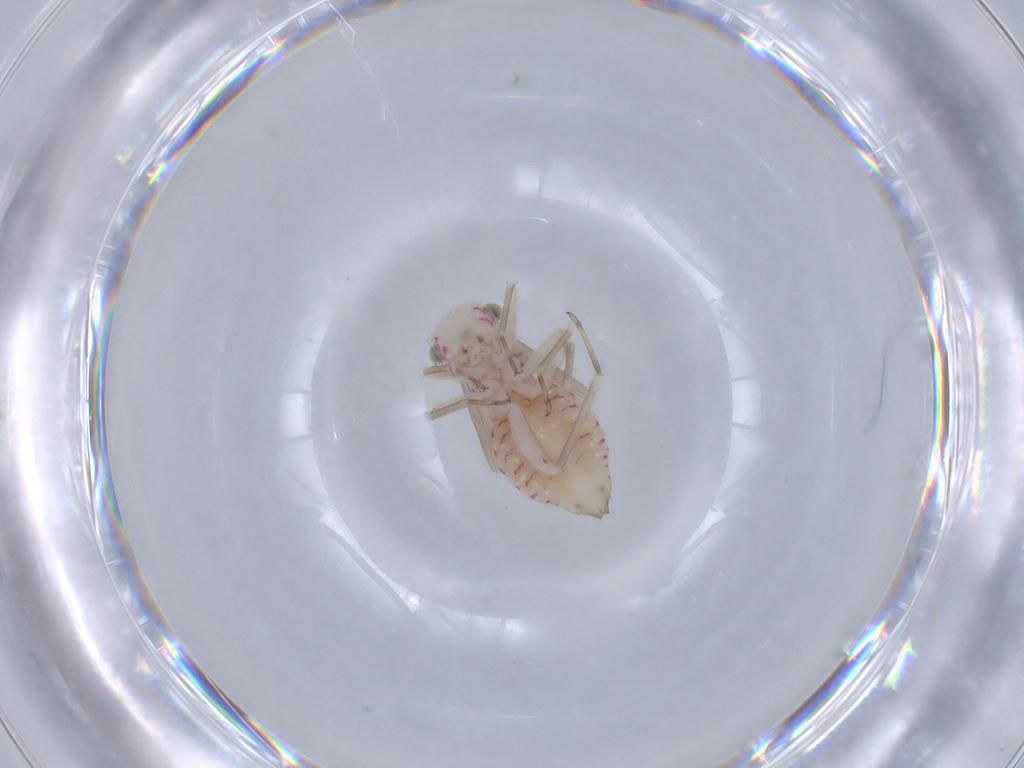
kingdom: Animalia
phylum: Arthropoda
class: Insecta
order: Psocodea
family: Philotarsidae
